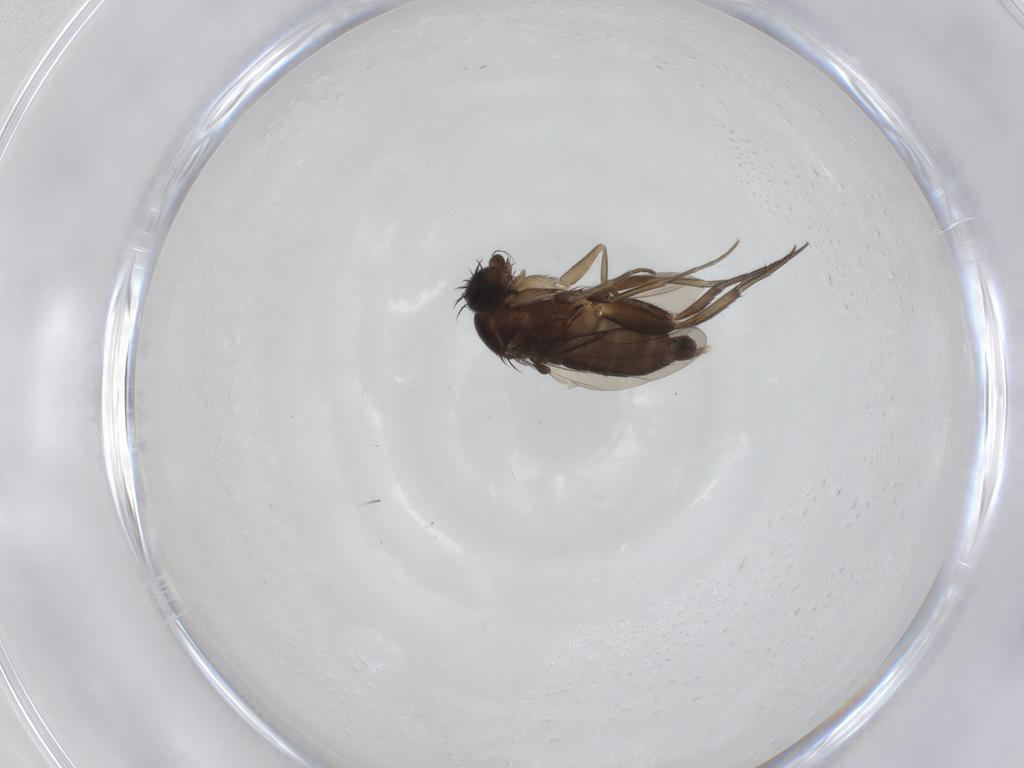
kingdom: Animalia
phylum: Arthropoda
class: Insecta
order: Diptera
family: Phoridae
